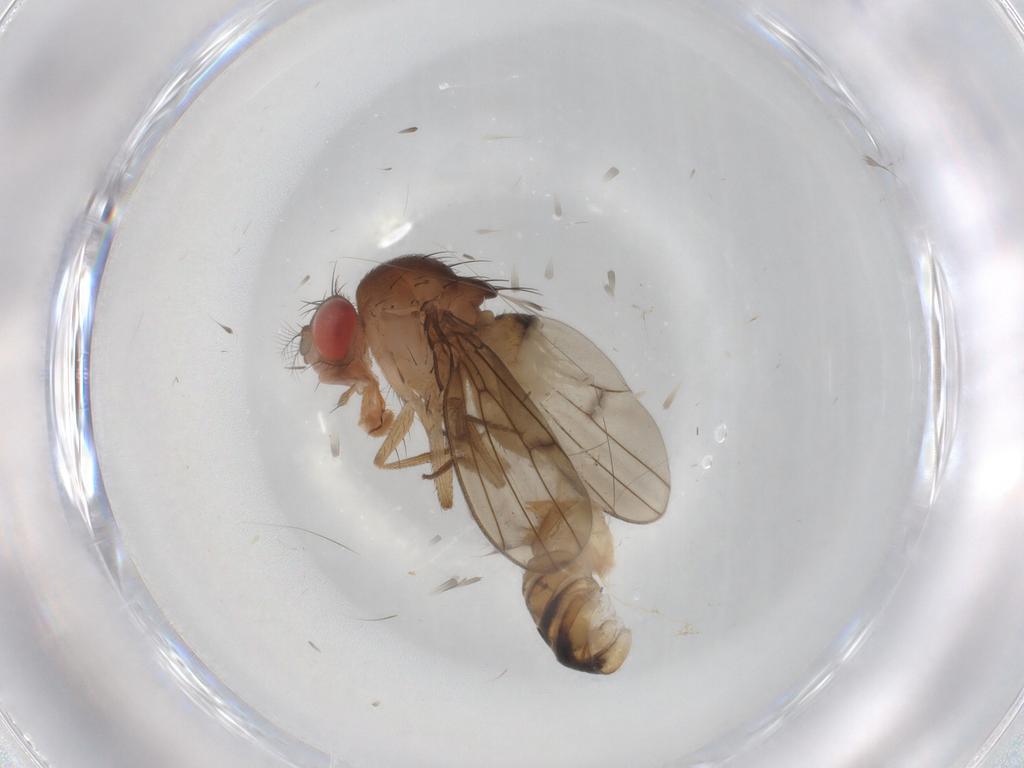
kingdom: Animalia
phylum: Arthropoda
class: Insecta
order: Diptera
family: Drosophilidae
